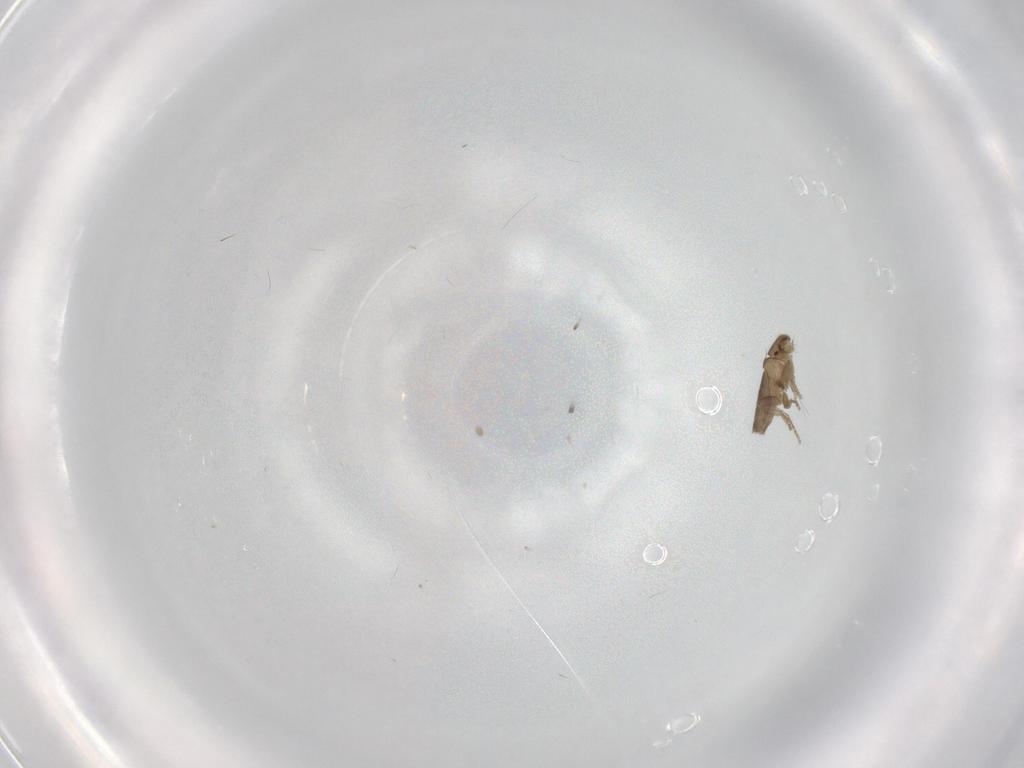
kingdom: Animalia
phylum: Arthropoda
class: Insecta
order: Diptera
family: Phoridae
